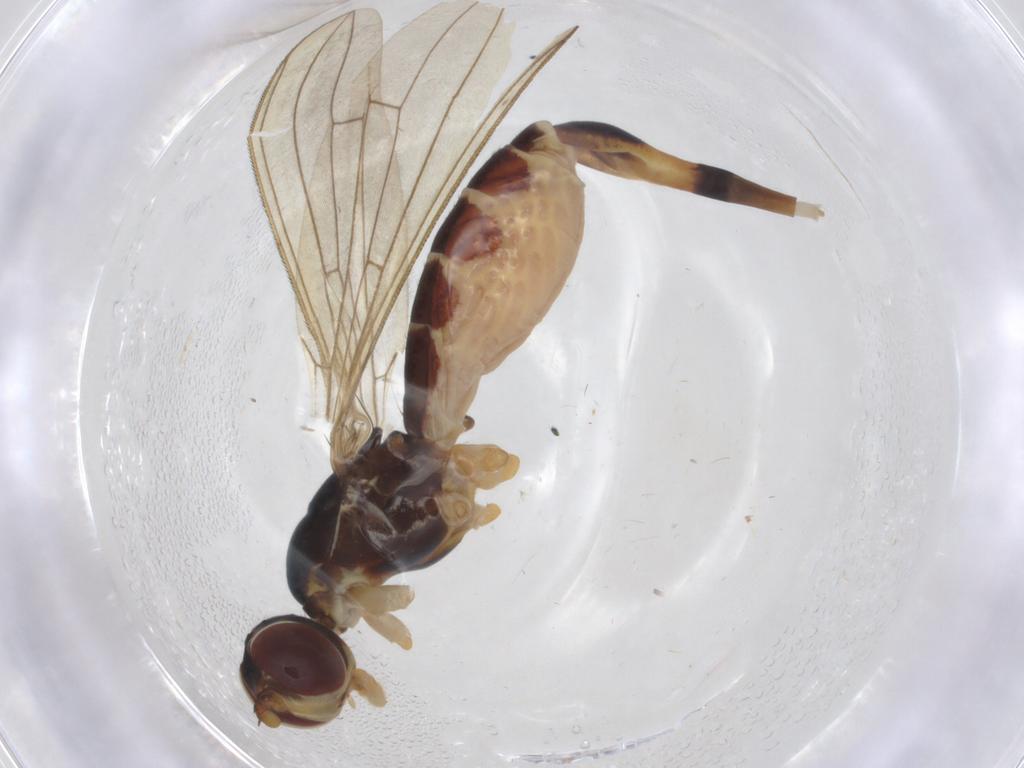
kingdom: Animalia
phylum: Arthropoda
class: Insecta
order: Diptera
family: Micropezidae
